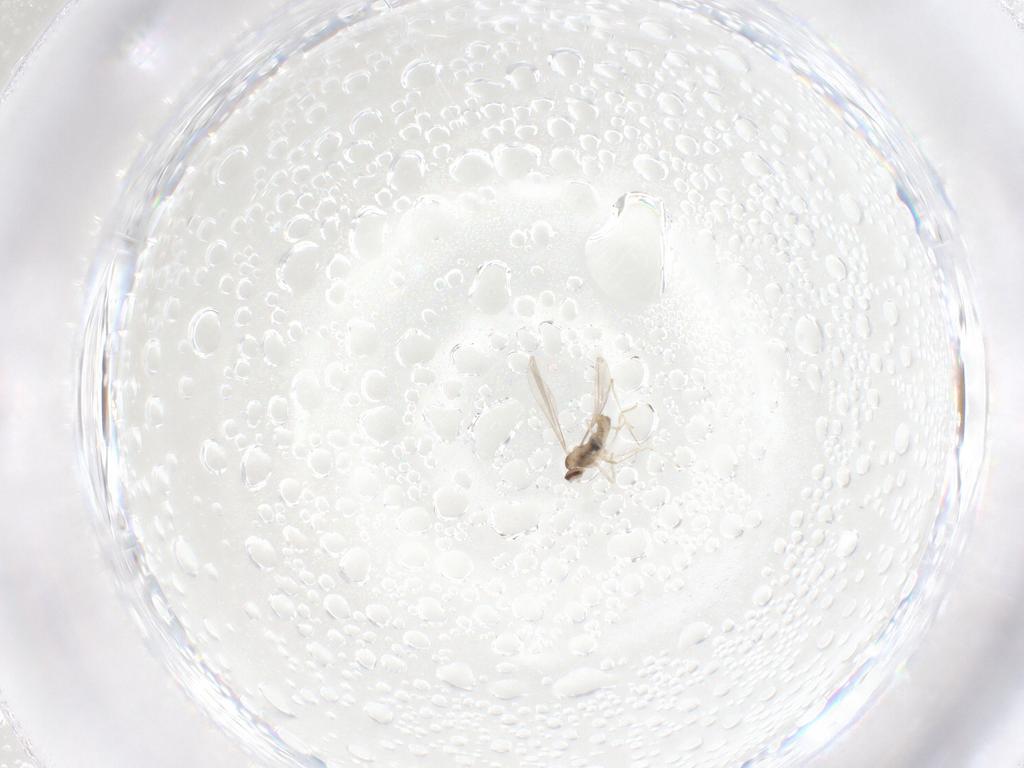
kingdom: Animalia
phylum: Arthropoda
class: Insecta
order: Diptera
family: Cecidomyiidae
